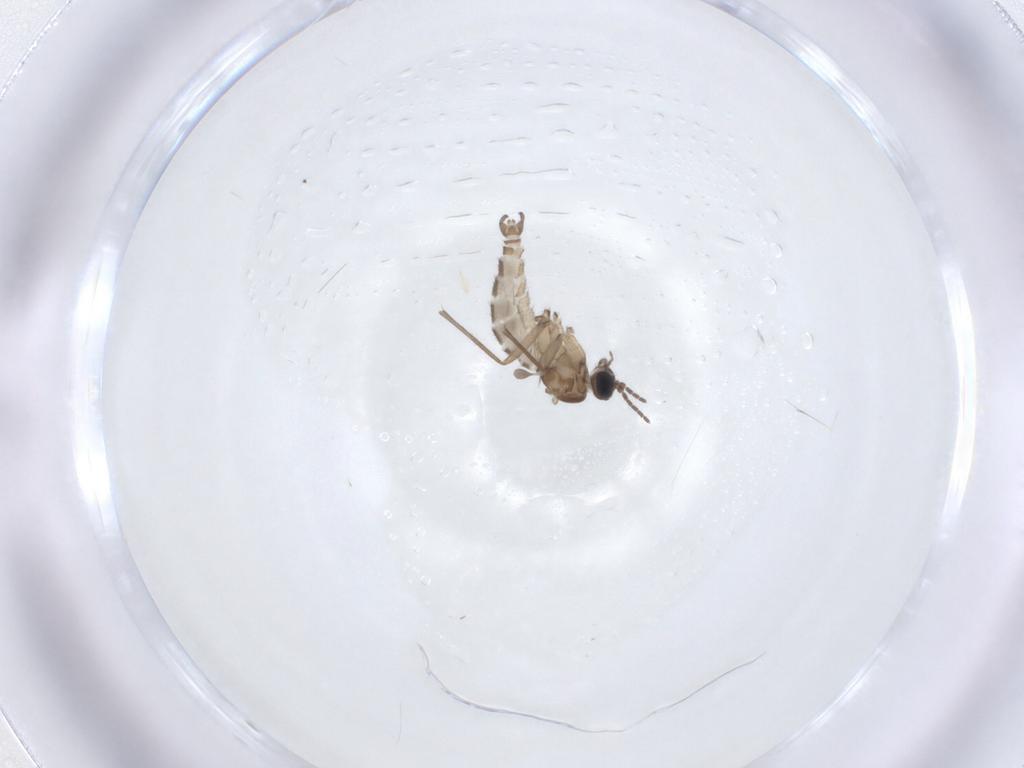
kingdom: Animalia
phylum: Arthropoda
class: Insecta
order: Diptera
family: Sciaridae
